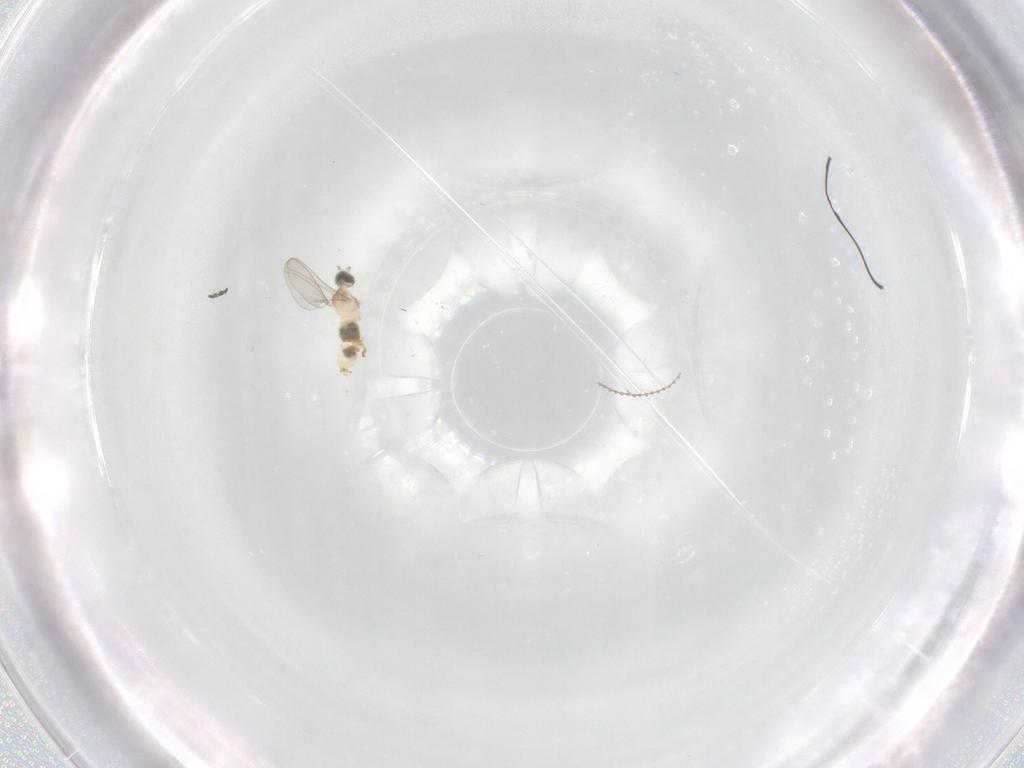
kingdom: Animalia
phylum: Arthropoda
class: Insecta
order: Diptera
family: Cecidomyiidae
